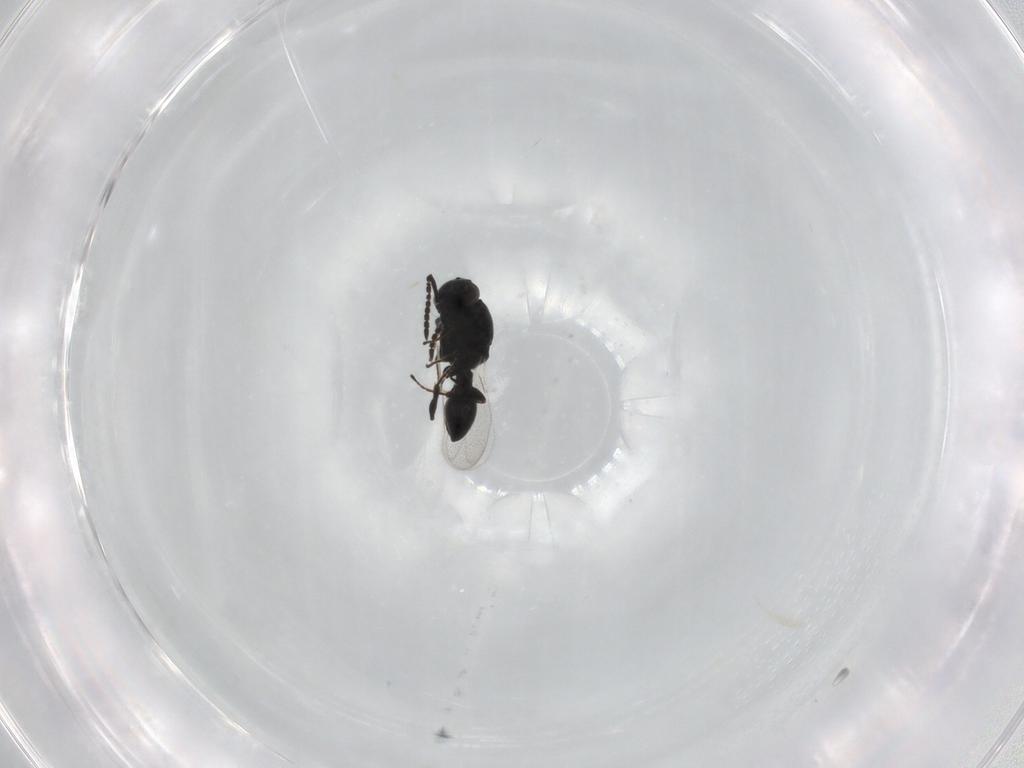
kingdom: Animalia
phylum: Arthropoda
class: Insecta
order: Hymenoptera
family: Platygastridae
